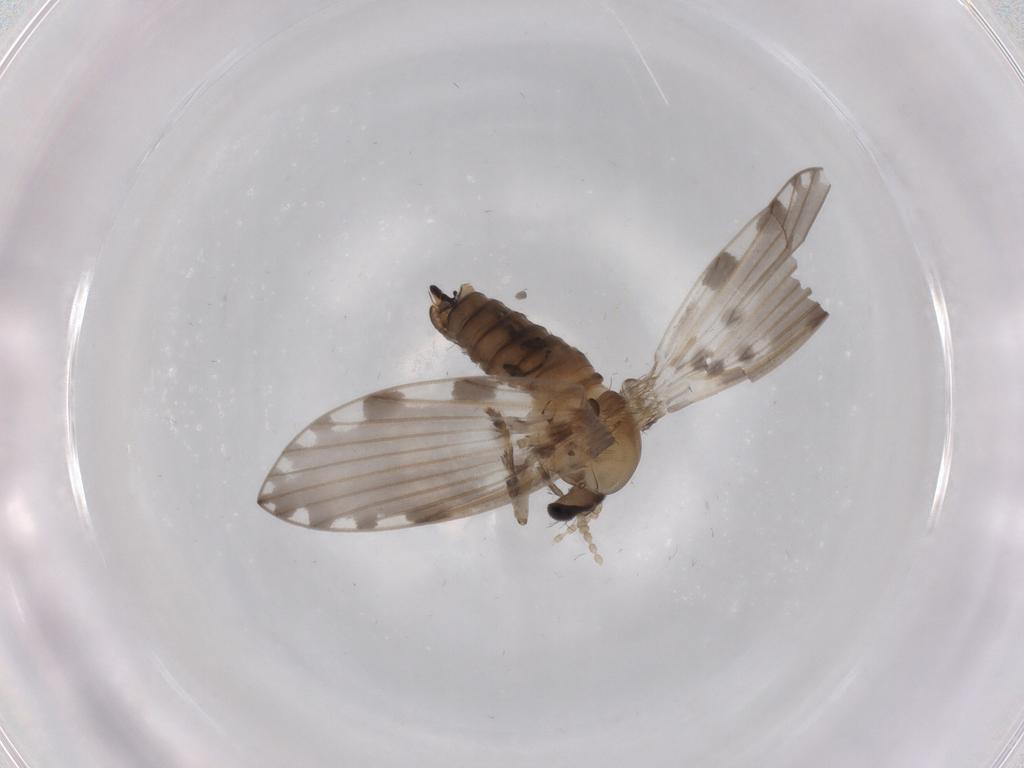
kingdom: Animalia
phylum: Arthropoda
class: Insecta
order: Diptera
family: Psychodidae
